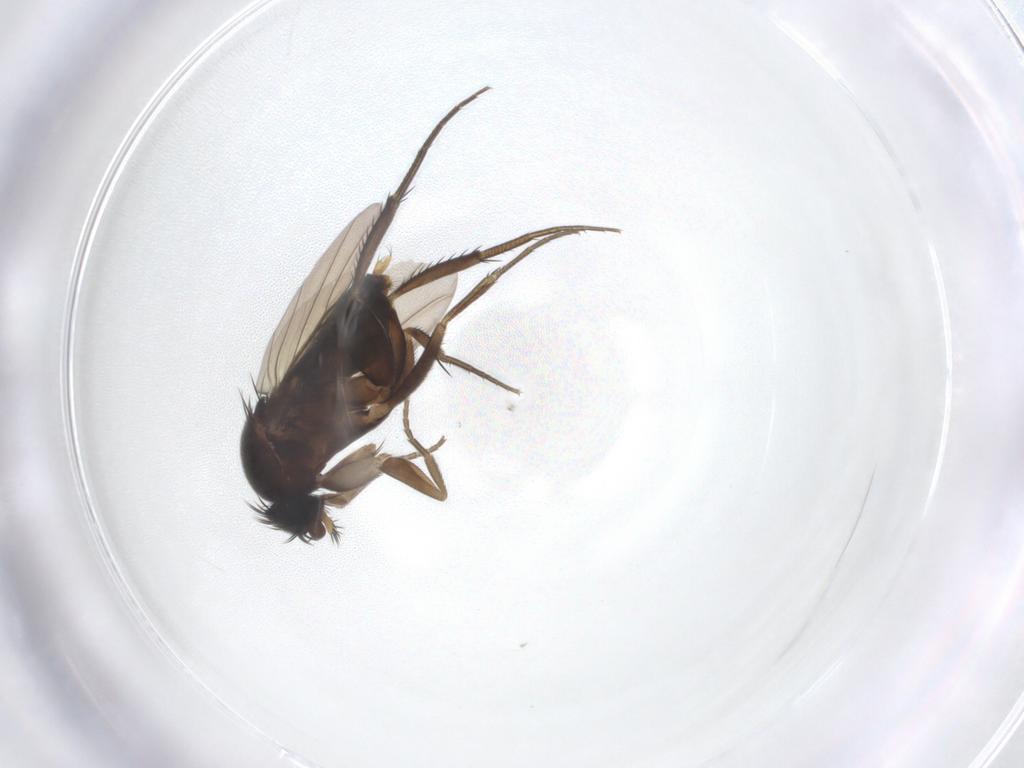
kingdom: Animalia
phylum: Arthropoda
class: Insecta
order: Diptera
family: Phoridae
